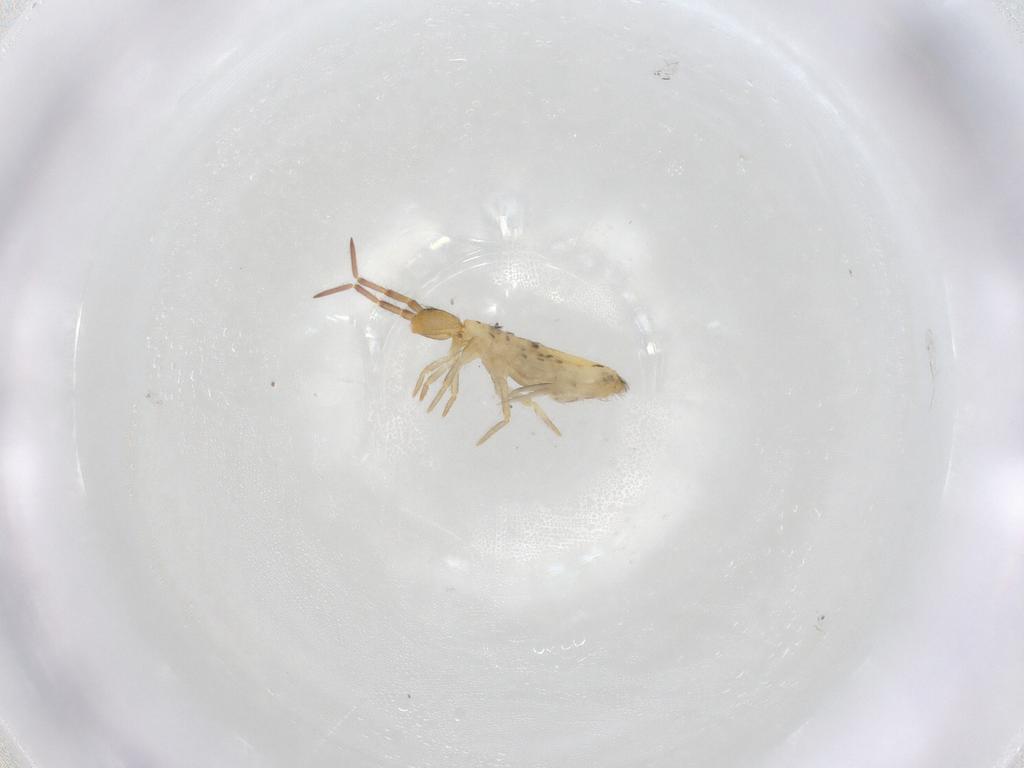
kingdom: Animalia
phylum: Arthropoda
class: Collembola
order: Entomobryomorpha
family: Entomobryidae
